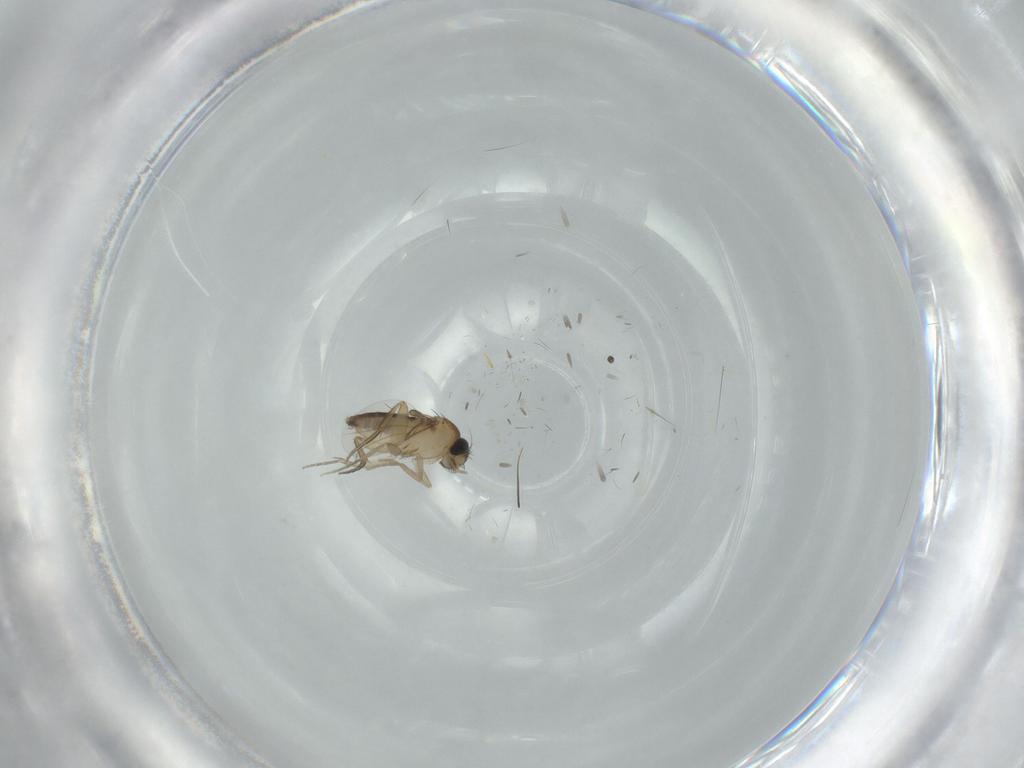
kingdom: Animalia
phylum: Arthropoda
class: Insecta
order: Diptera
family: Phoridae
